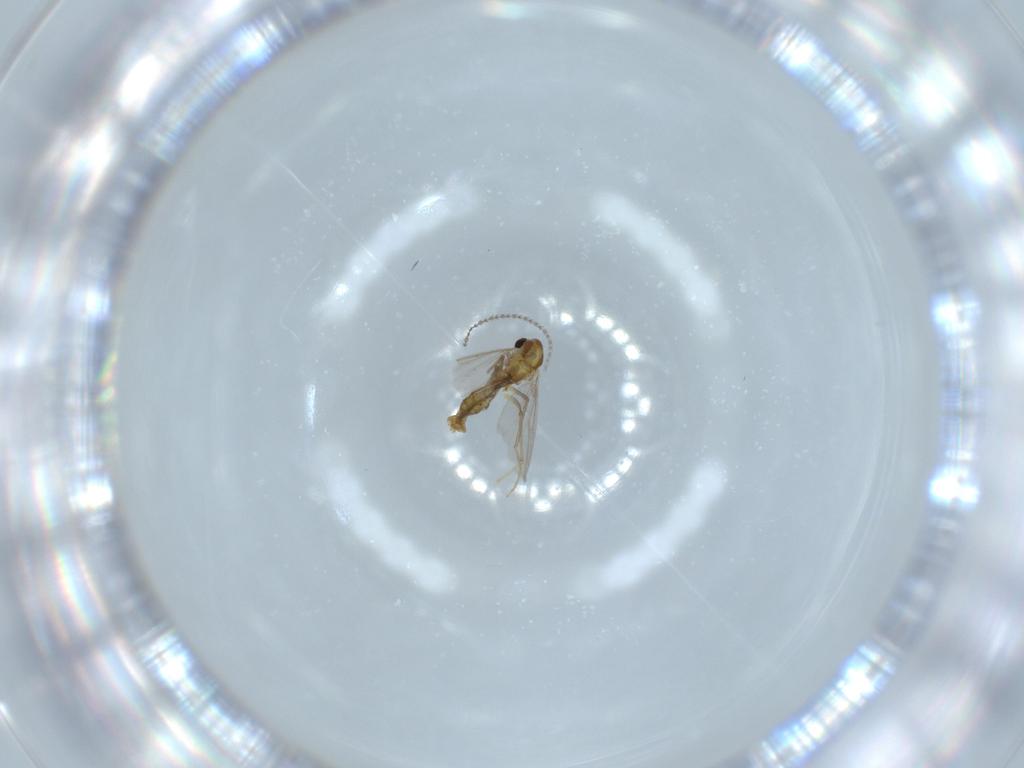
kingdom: Animalia
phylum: Arthropoda
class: Insecta
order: Diptera
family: Chironomidae
